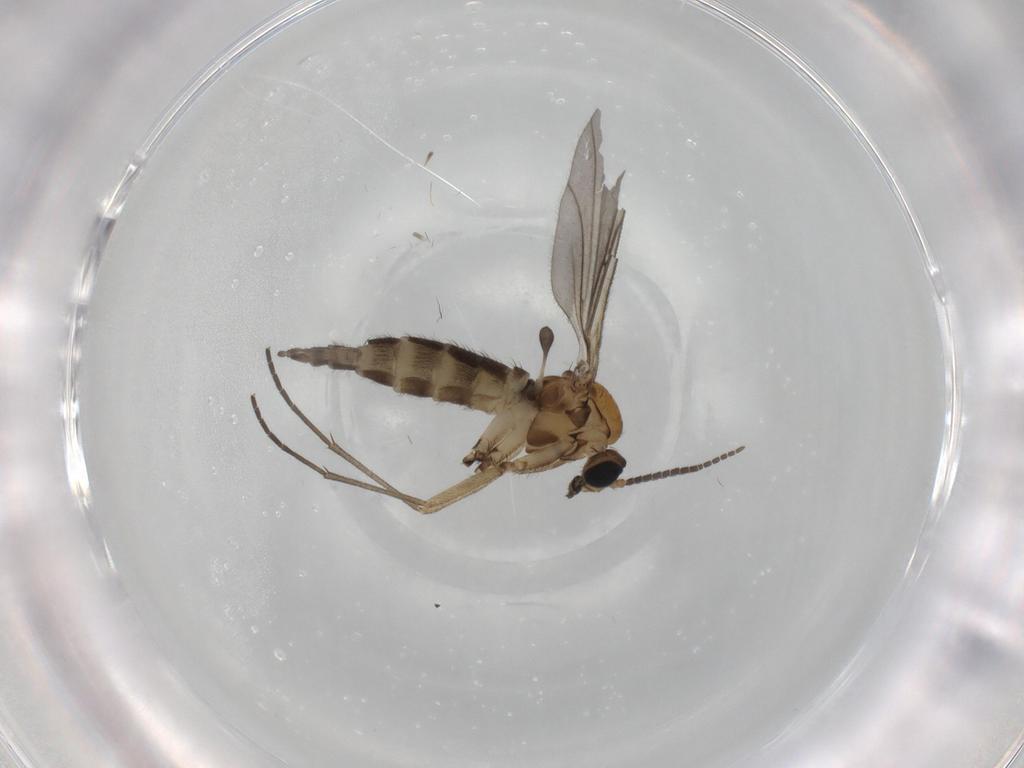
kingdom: Animalia
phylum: Arthropoda
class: Insecta
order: Diptera
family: Sciaridae
